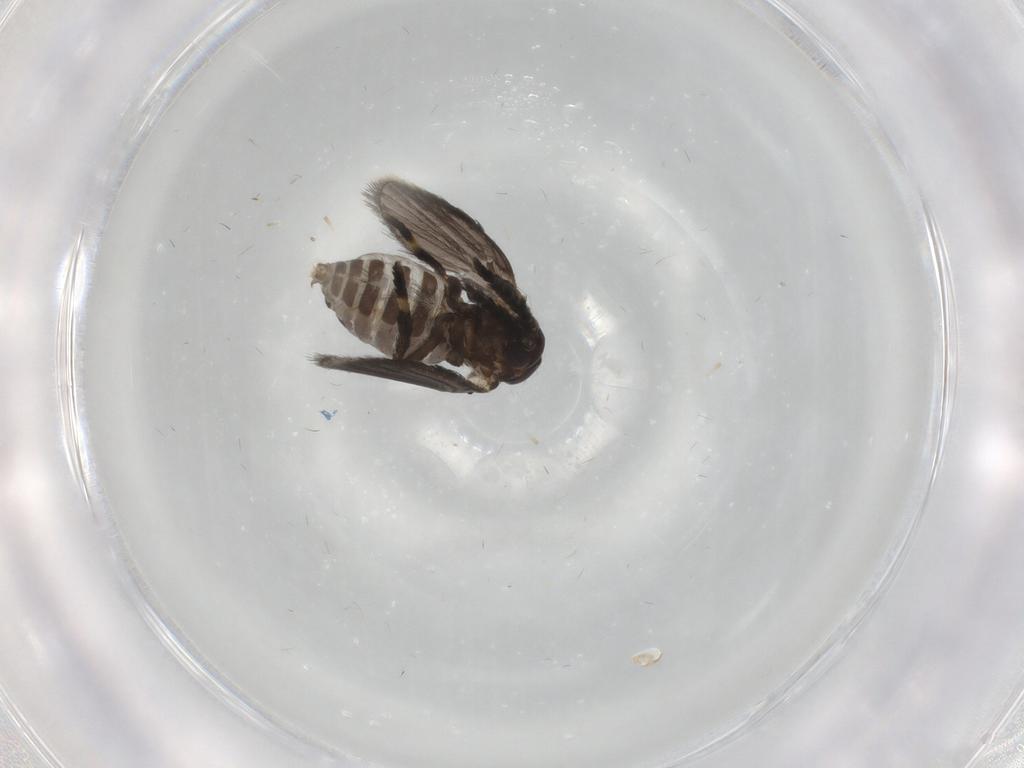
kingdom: Animalia
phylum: Arthropoda
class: Insecta
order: Diptera
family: Psychodidae
